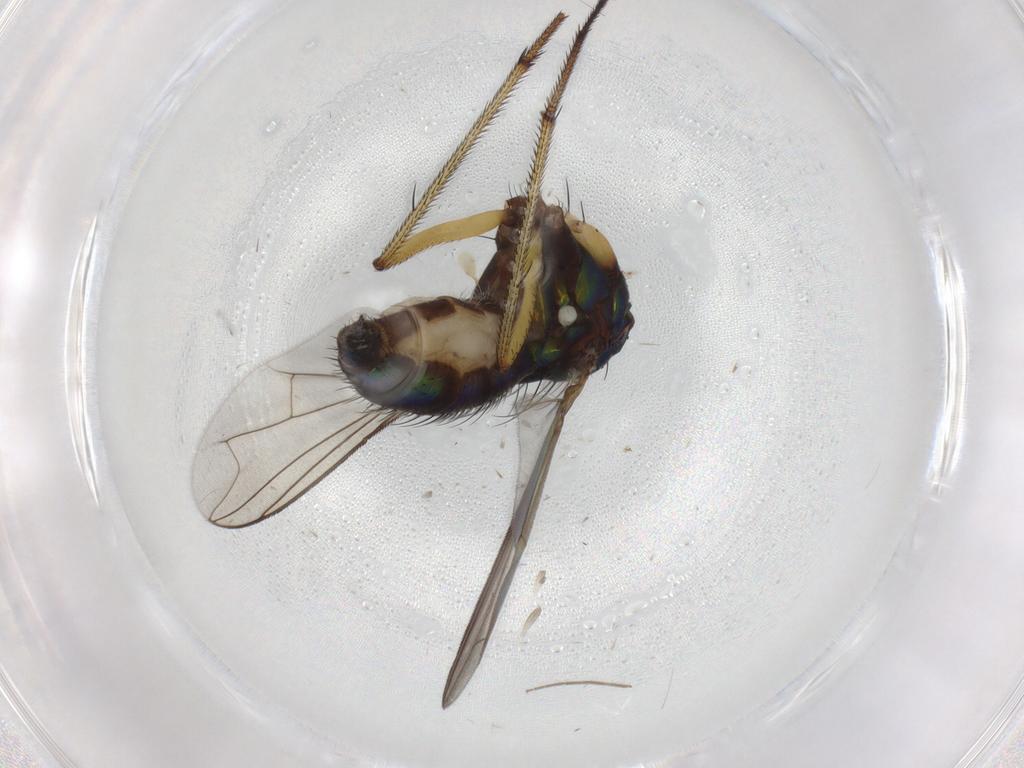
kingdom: Animalia
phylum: Arthropoda
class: Insecta
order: Diptera
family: Dolichopodidae
